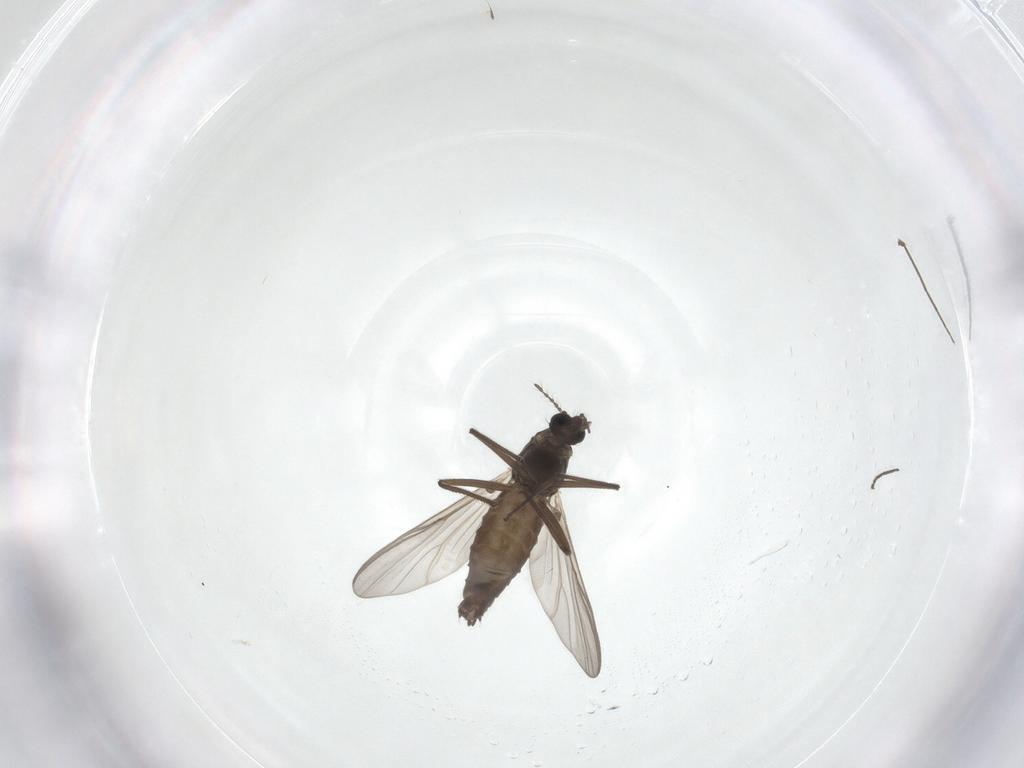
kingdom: Animalia
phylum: Arthropoda
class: Insecta
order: Diptera
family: Chironomidae
